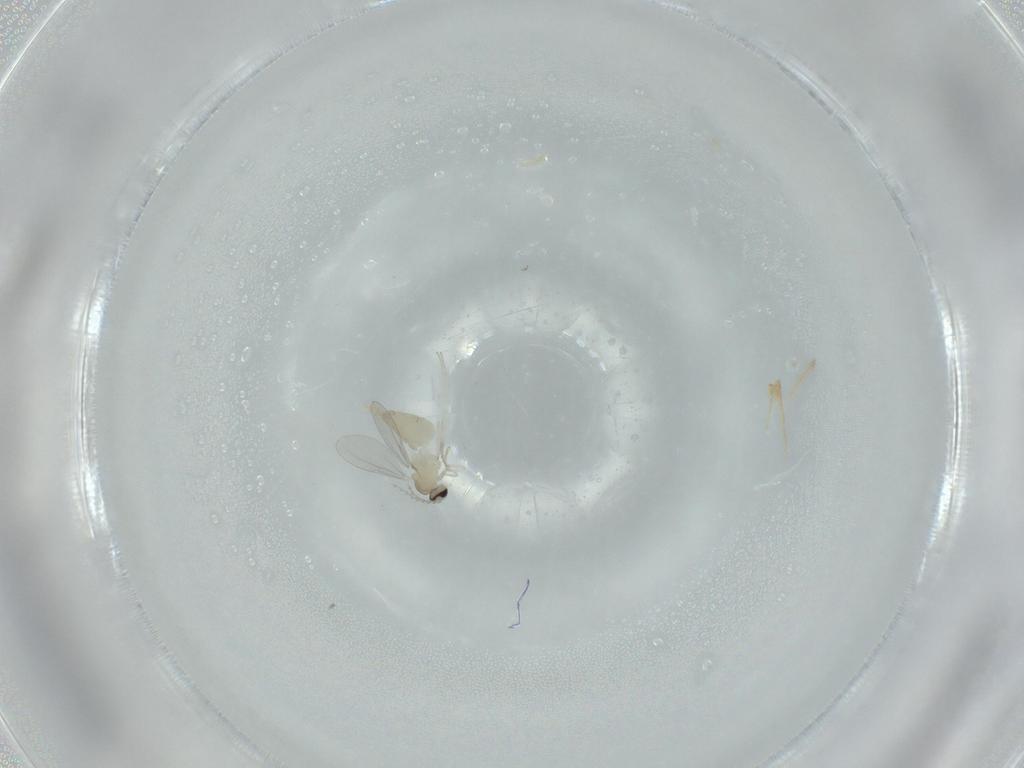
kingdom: Animalia
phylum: Arthropoda
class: Insecta
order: Diptera
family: Cecidomyiidae
